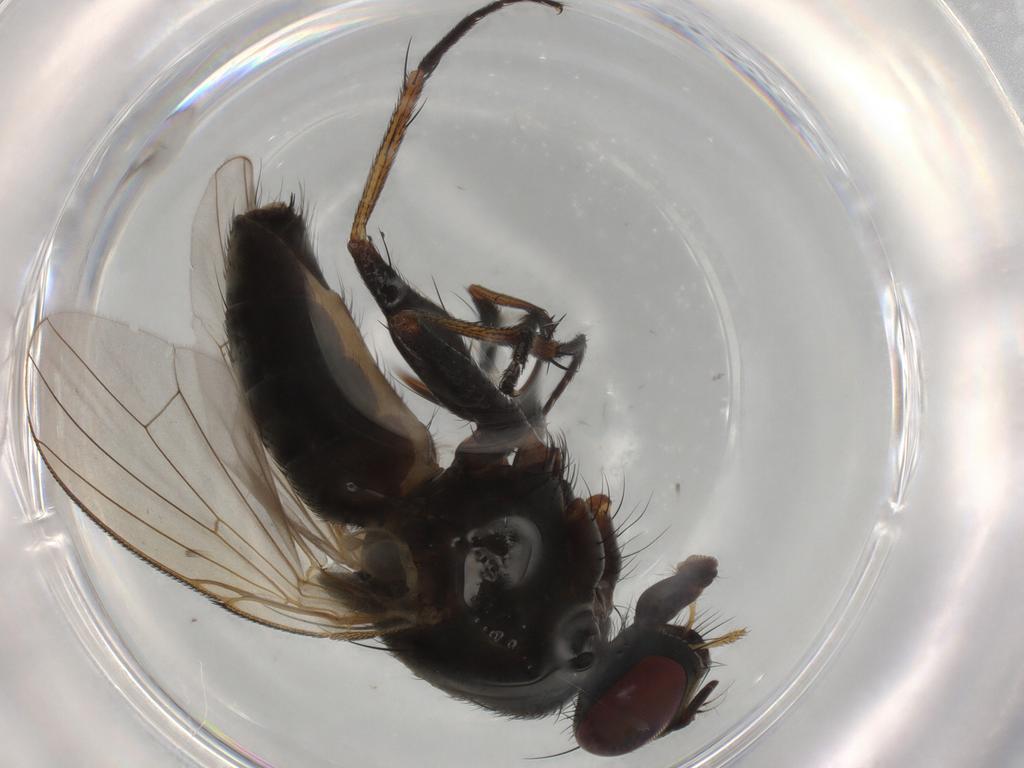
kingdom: Animalia
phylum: Arthropoda
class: Insecta
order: Diptera
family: Muscidae
